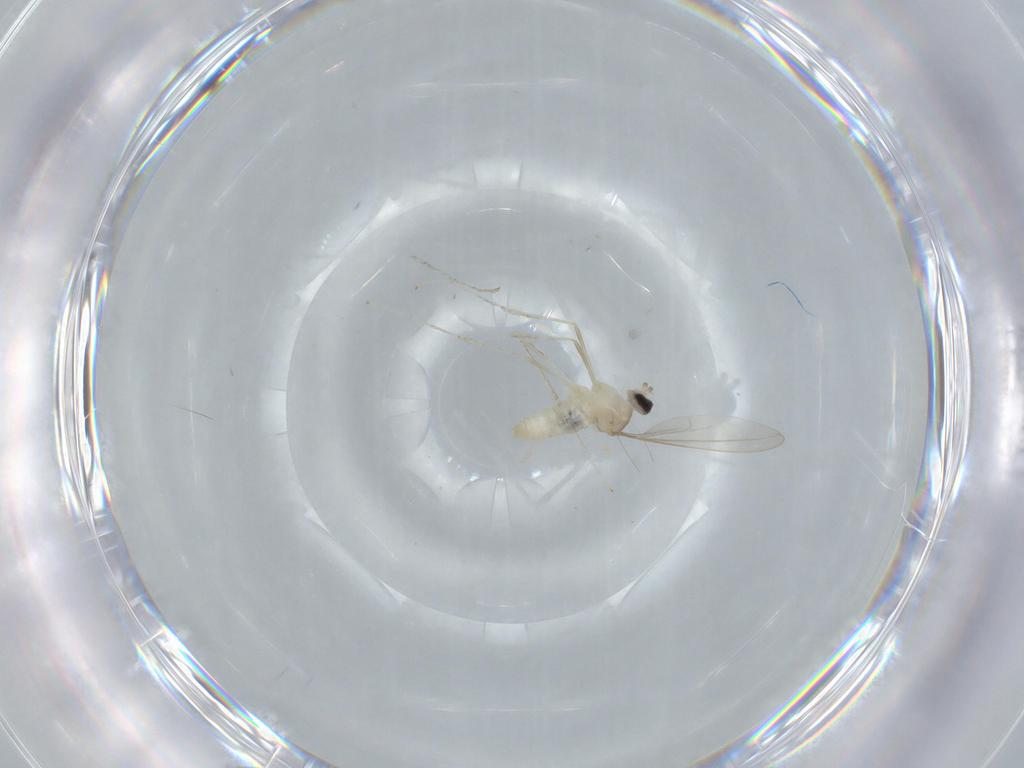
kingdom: Animalia
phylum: Arthropoda
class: Insecta
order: Diptera
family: Cecidomyiidae
